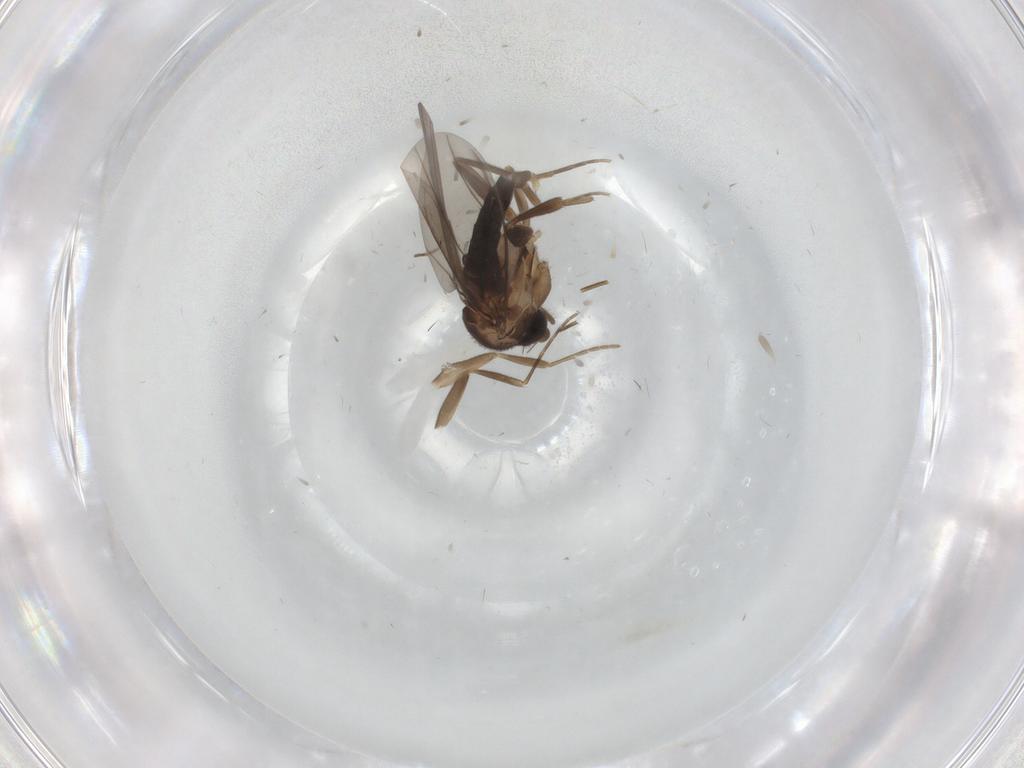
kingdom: Animalia
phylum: Arthropoda
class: Insecta
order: Diptera
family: Phoridae
